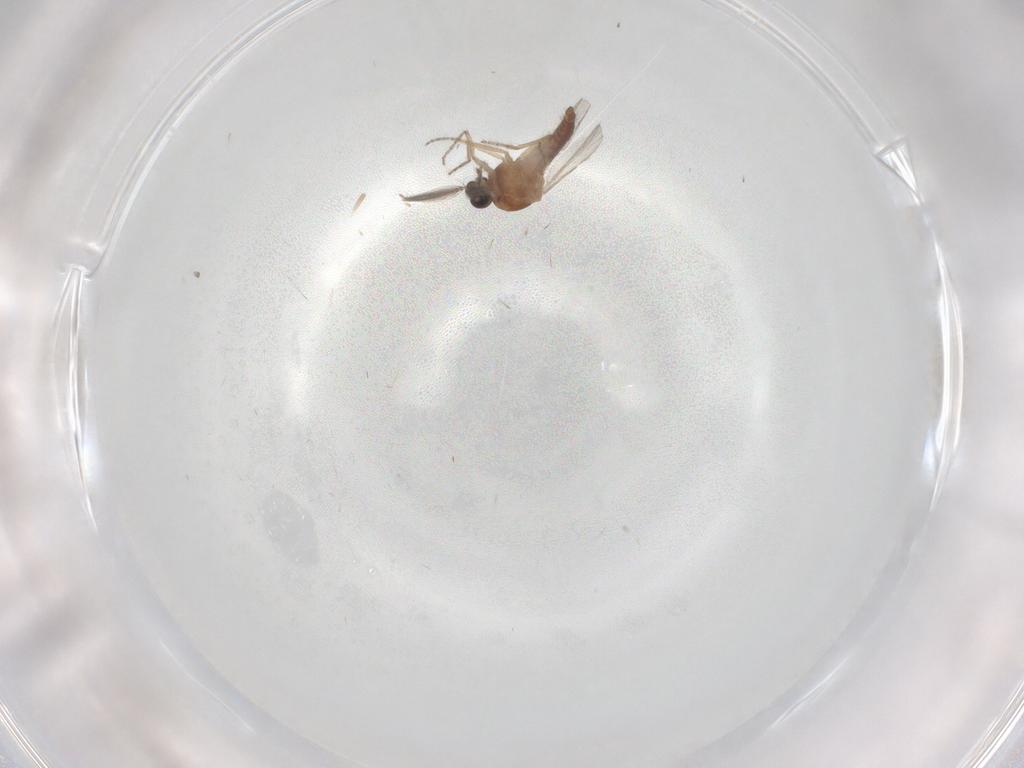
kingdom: Animalia
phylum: Arthropoda
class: Insecta
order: Diptera
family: Ceratopogonidae
